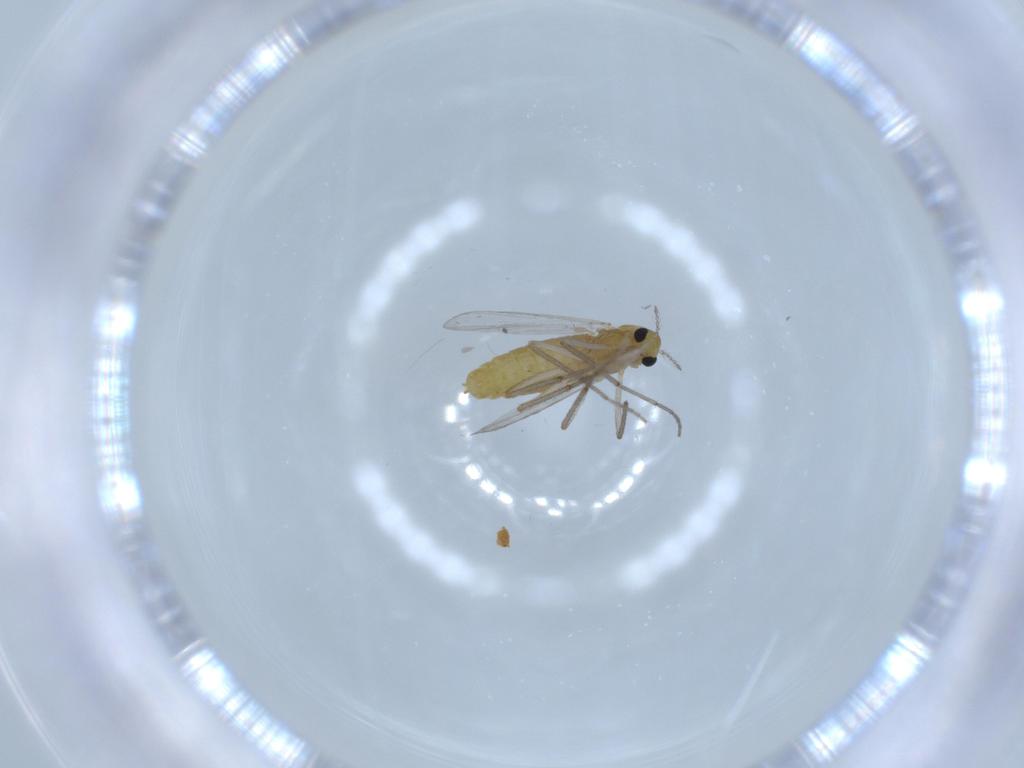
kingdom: Animalia
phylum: Arthropoda
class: Insecta
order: Diptera
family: Chironomidae
